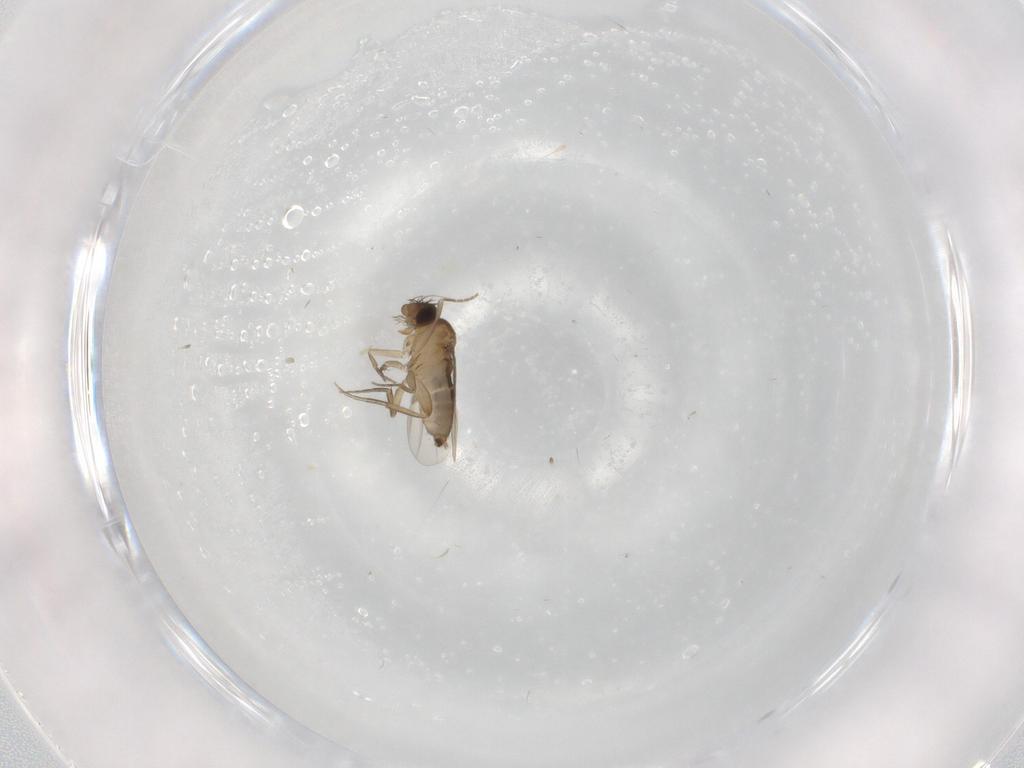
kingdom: Animalia
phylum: Arthropoda
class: Insecta
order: Diptera
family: Phoridae
